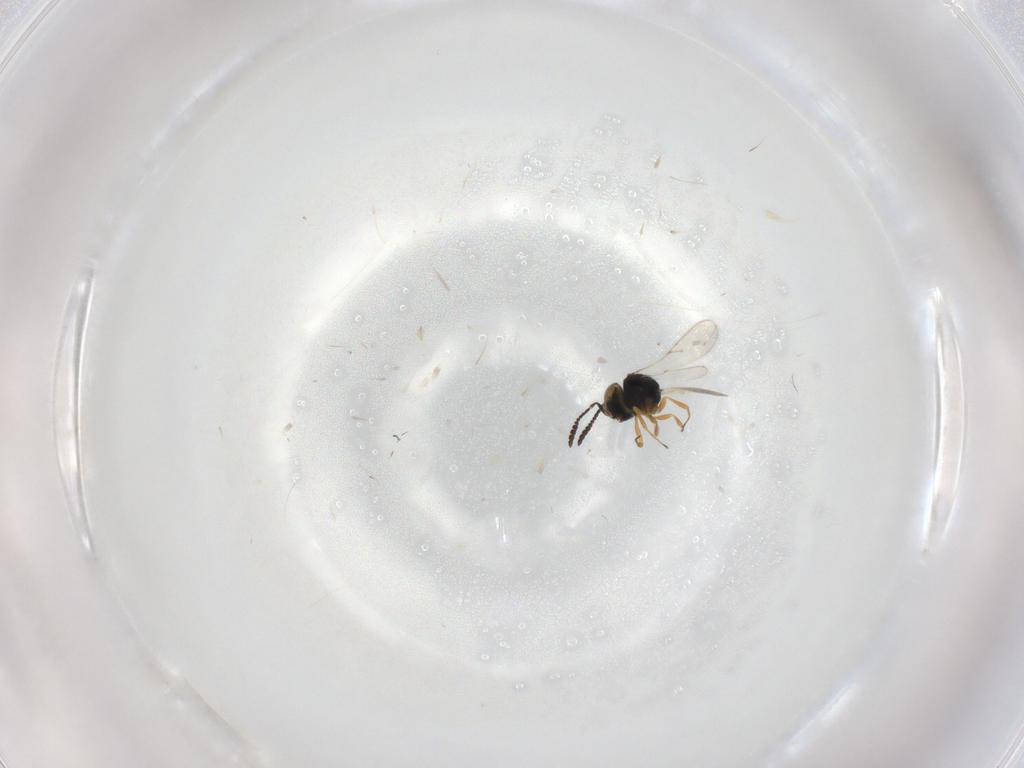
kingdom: Animalia
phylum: Arthropoda
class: Insecta
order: Hymenoptera
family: Scelionidae
